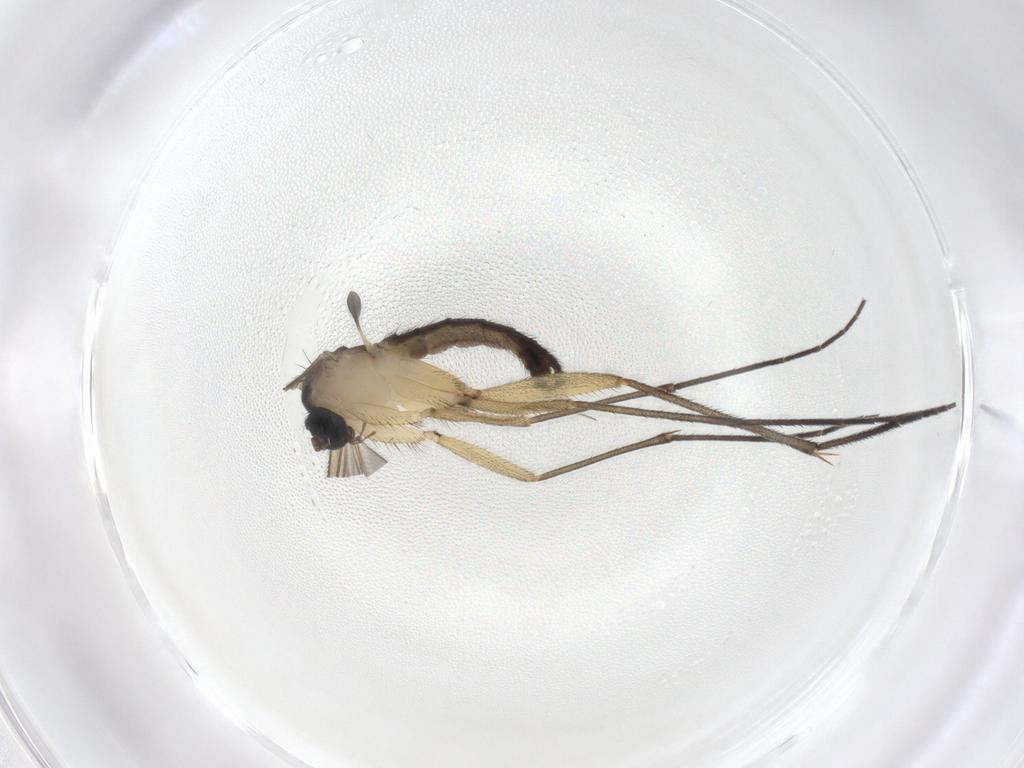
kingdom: Animalia
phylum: Arthropoda
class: Insecta
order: Diptera
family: Sciaridae
